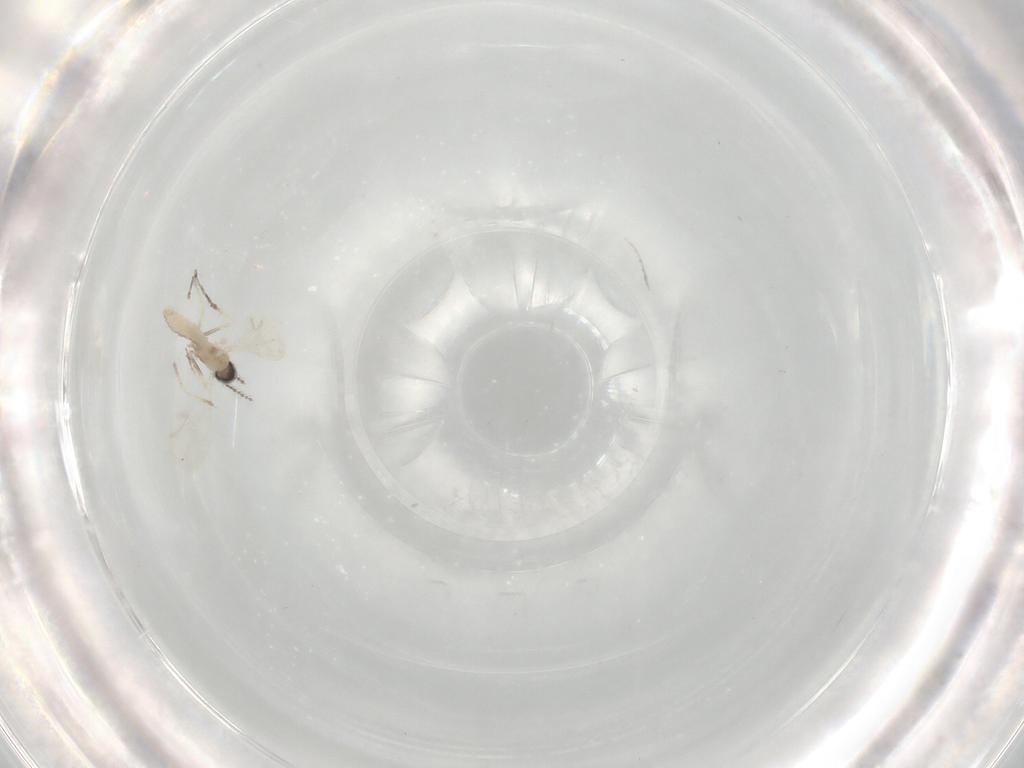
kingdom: Animalia
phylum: Arthropoda
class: Insecta
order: Diptera
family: Cecidomyiidae
